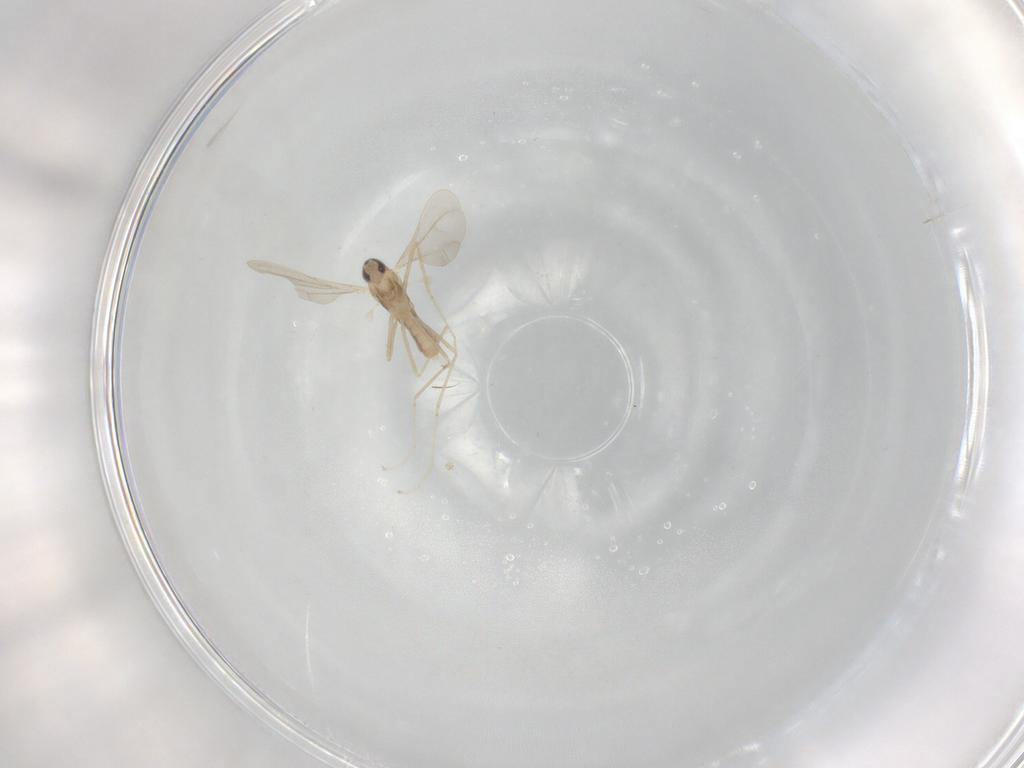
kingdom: Animalia
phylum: Arthropoda
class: Insecta
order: Diptera
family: Cecidomyiidae
